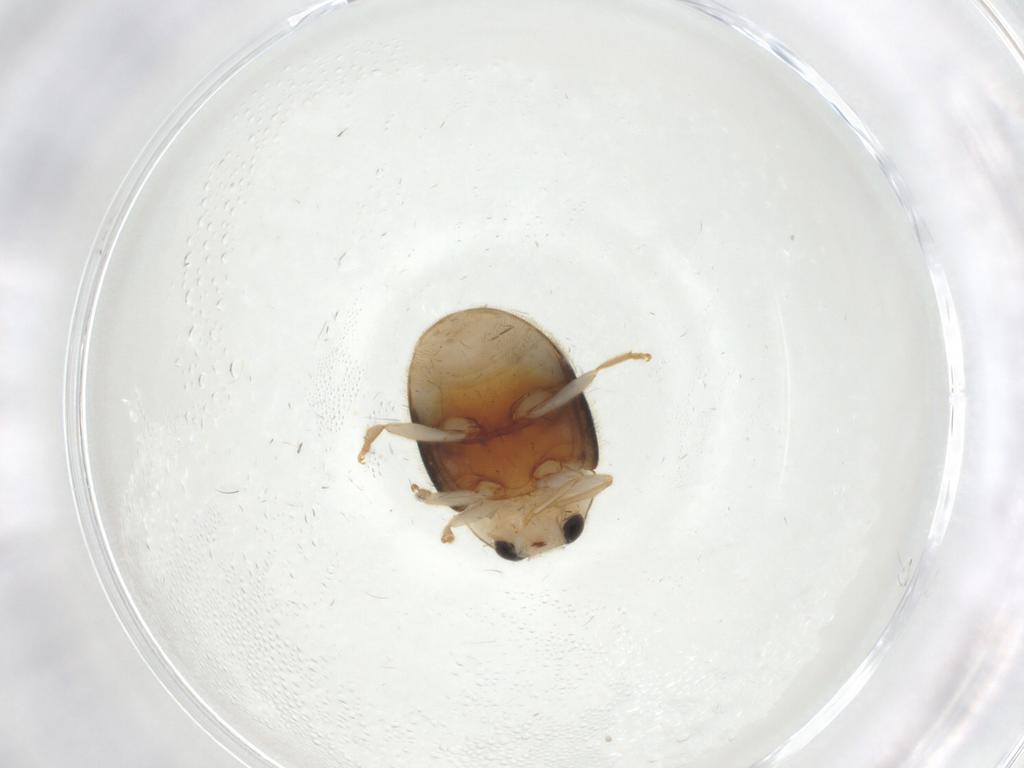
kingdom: Animalia
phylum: Arthropoda
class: Insecta
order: Coleoptera
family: Coccinellidae
